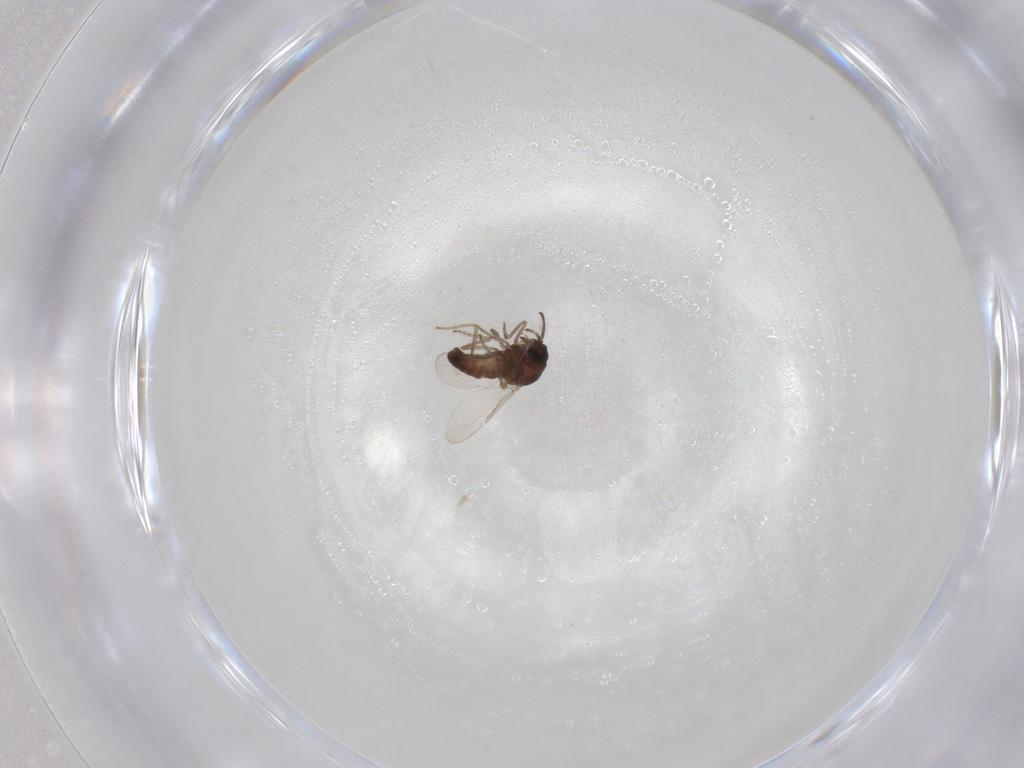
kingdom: Animalia
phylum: Arthropoda
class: Insecta
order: Diptera
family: Ceratopogonidae
